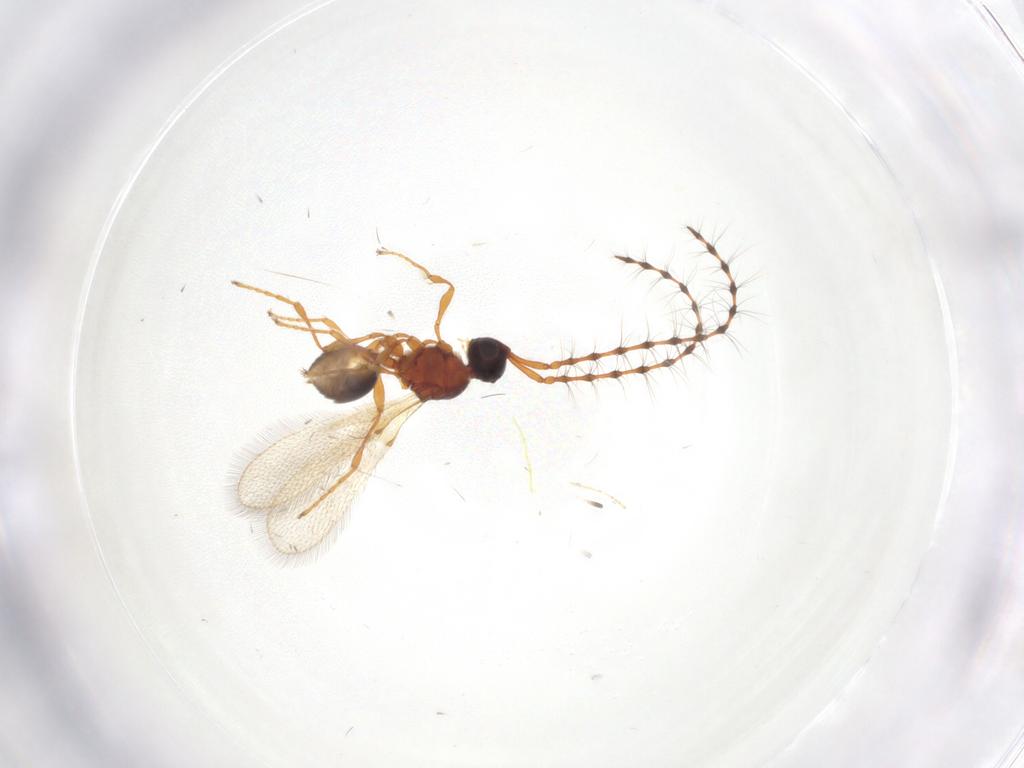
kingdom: Animalia
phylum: Arthropoda
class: Insecta
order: Hymenoptera
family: Diapriidae
